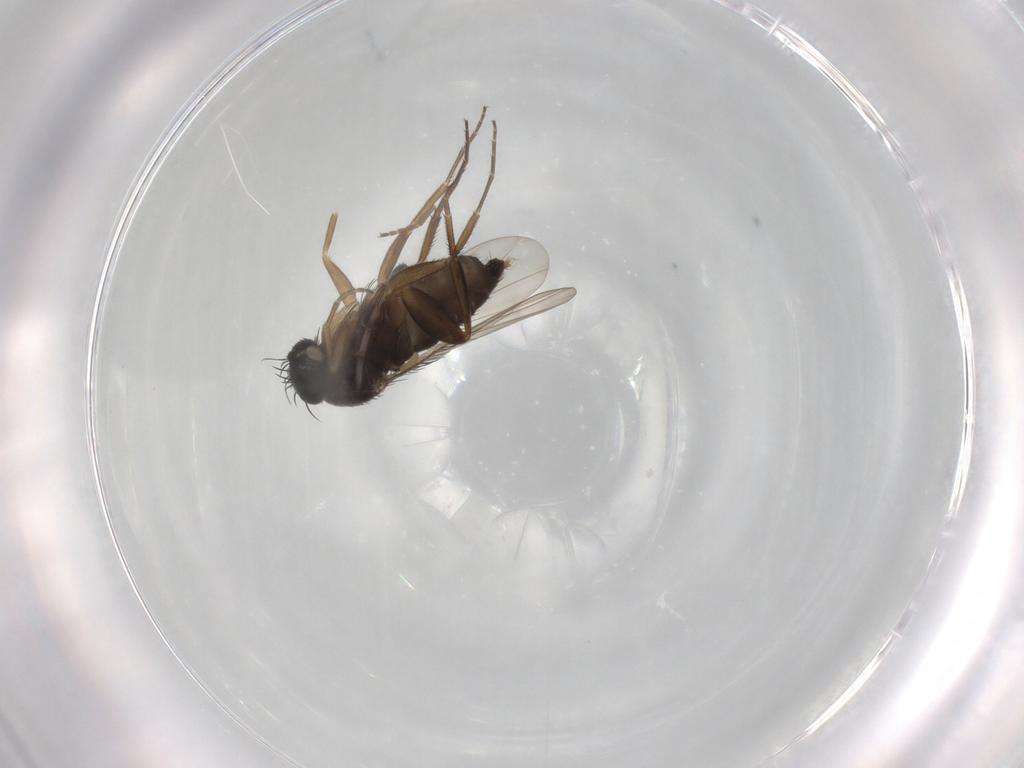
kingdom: Animalia
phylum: Arthropoda
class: Insecta
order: Diptera
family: Phoridae
